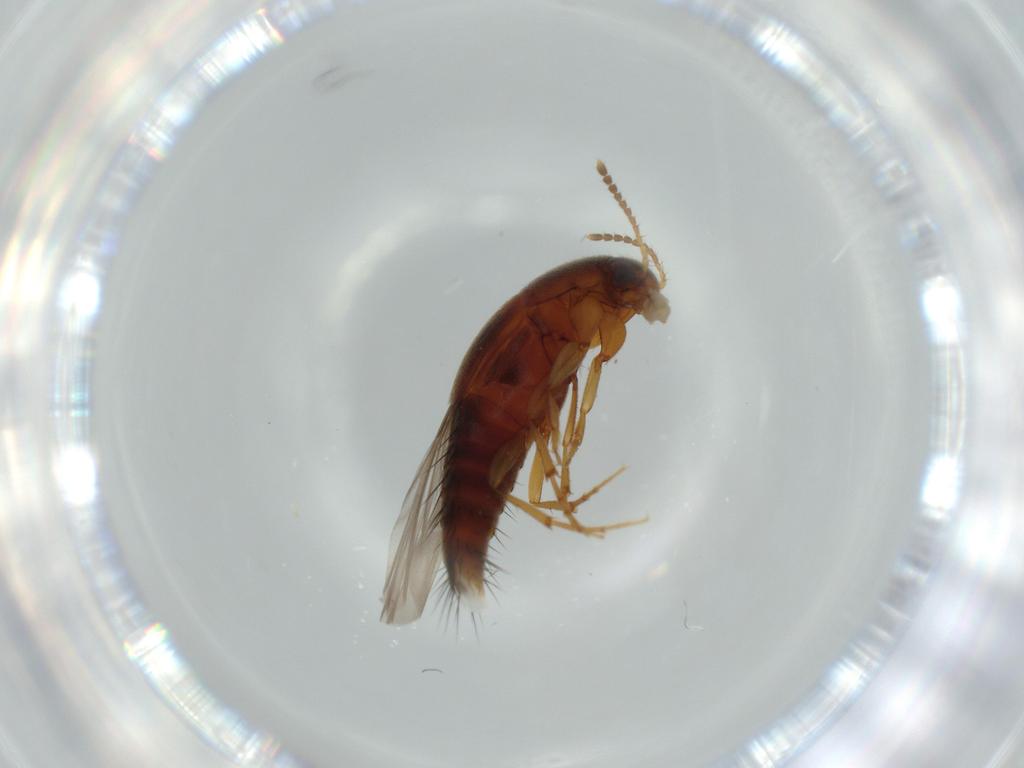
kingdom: Animalia
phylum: Arthropoda
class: Insecta
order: Coleoptera
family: Staphylinidae
